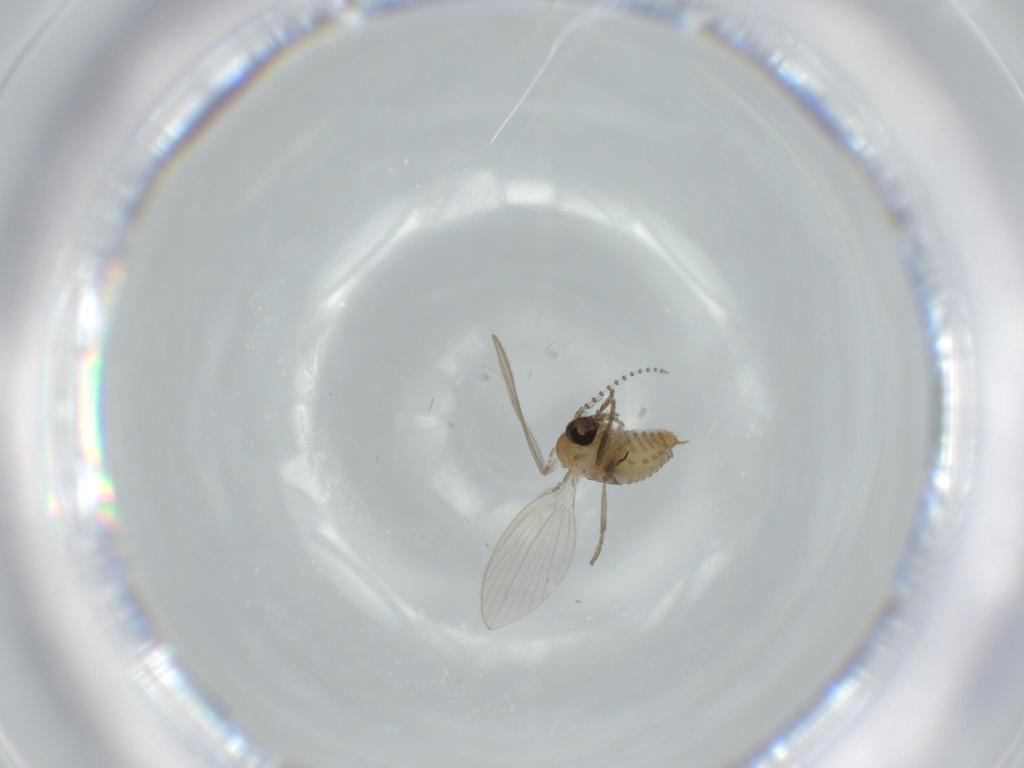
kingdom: Animalia
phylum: Arthropoda
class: Insecta
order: Diptera
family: Psychodidae
